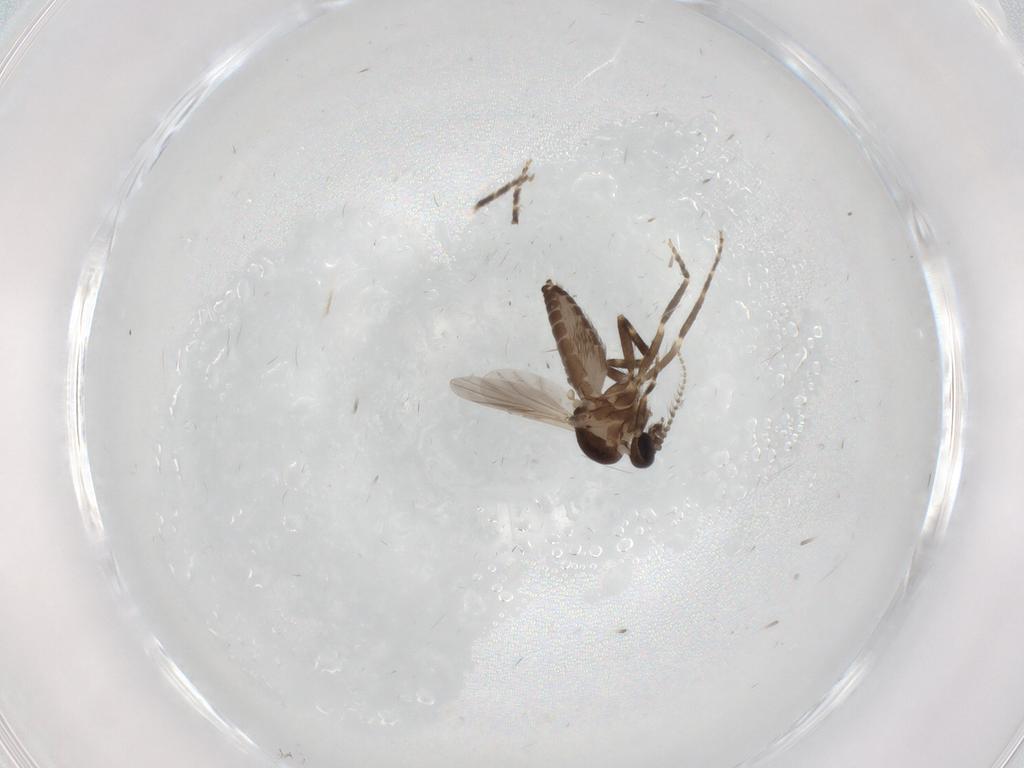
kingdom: Animalia
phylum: Arthropoda
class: Insecta
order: Diptera
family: Ceratopogonidae
